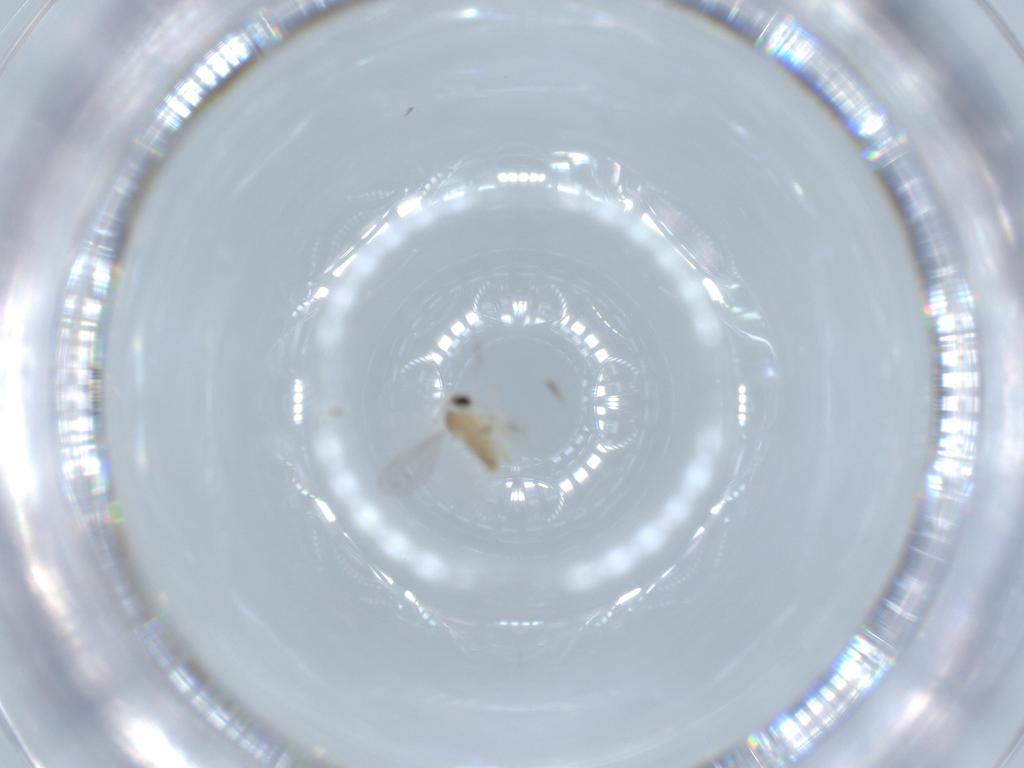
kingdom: Animalia
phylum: Arthropoda
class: Insecta
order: Diptera
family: Cecidomyiidae
